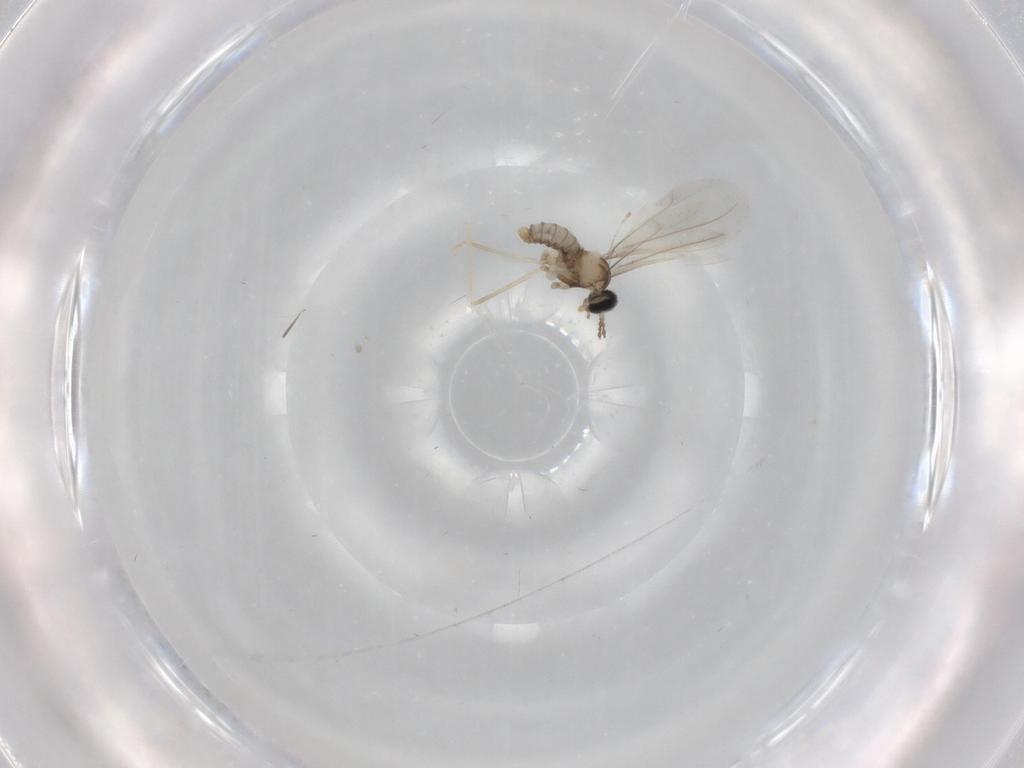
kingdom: Animalia
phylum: Arthropoda
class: Insecta
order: Diptera
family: Cecidomyiidae
